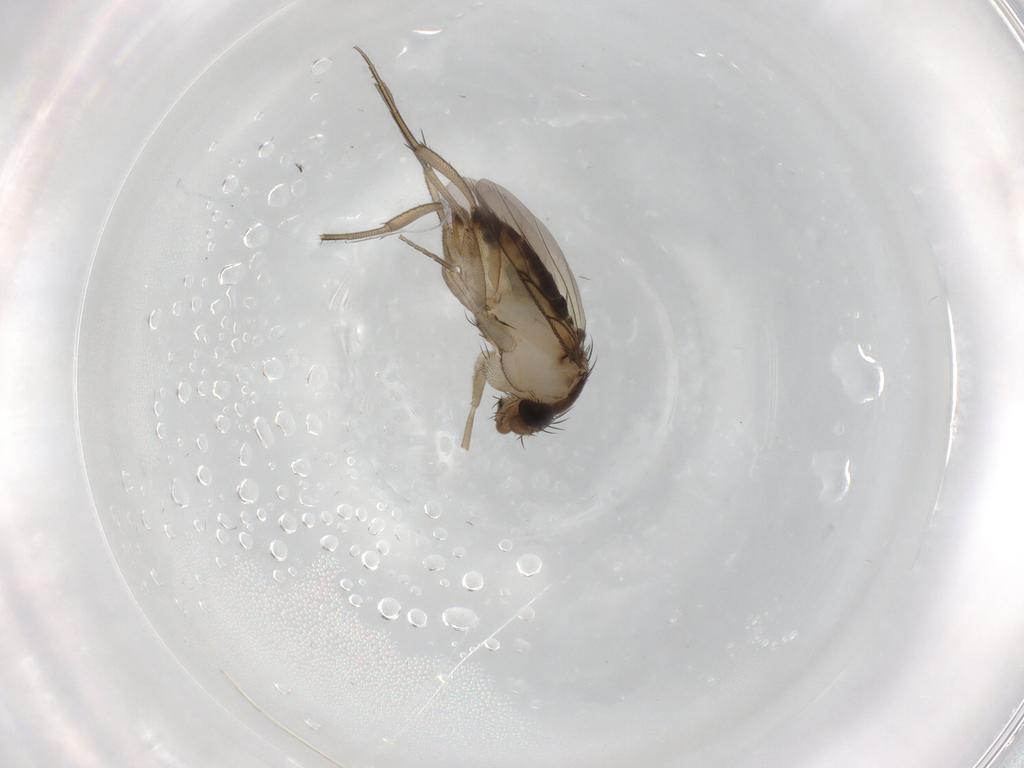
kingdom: Animalia
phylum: Arthropoda
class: Insecta
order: Diptera
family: Phoridae
